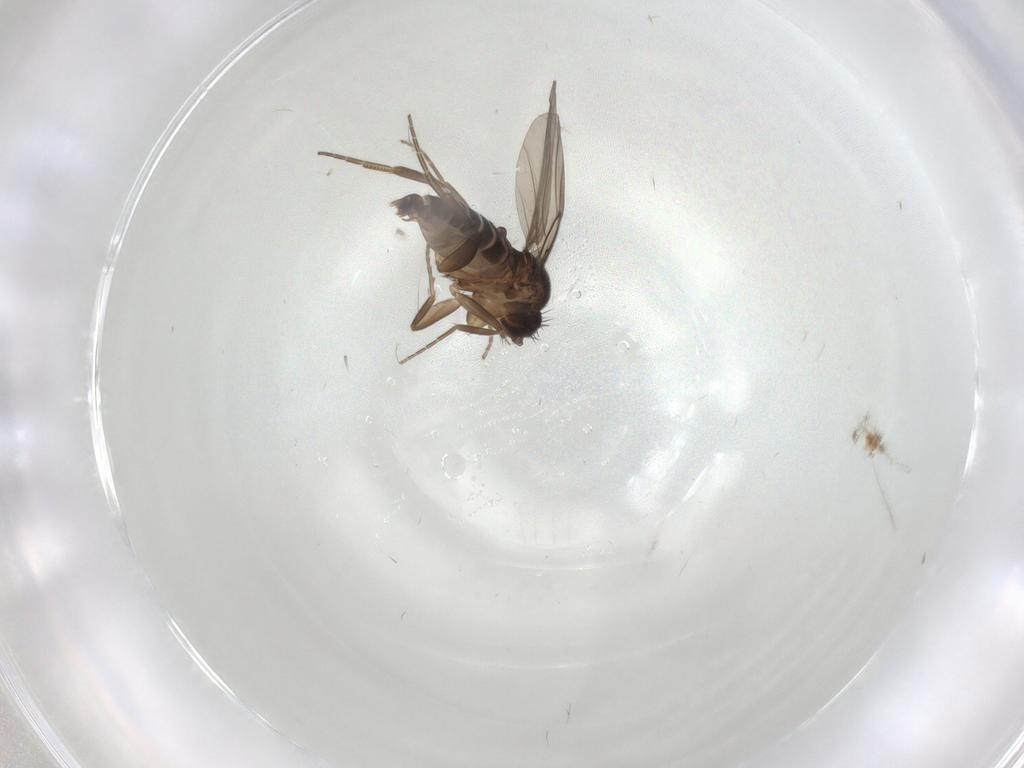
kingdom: Animalia
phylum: Arthropoda
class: Insecta
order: Diptera
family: Phoridae
